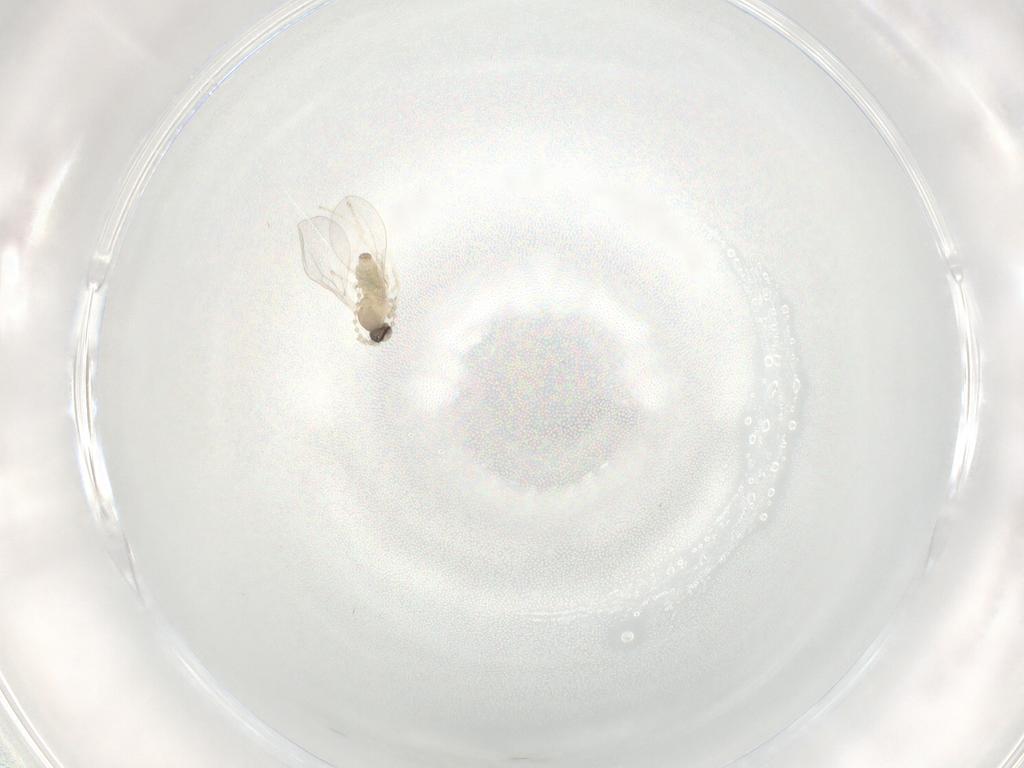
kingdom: Animalia
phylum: Arthropoda
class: Insecta
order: Diptera
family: Cecidomyiidae
